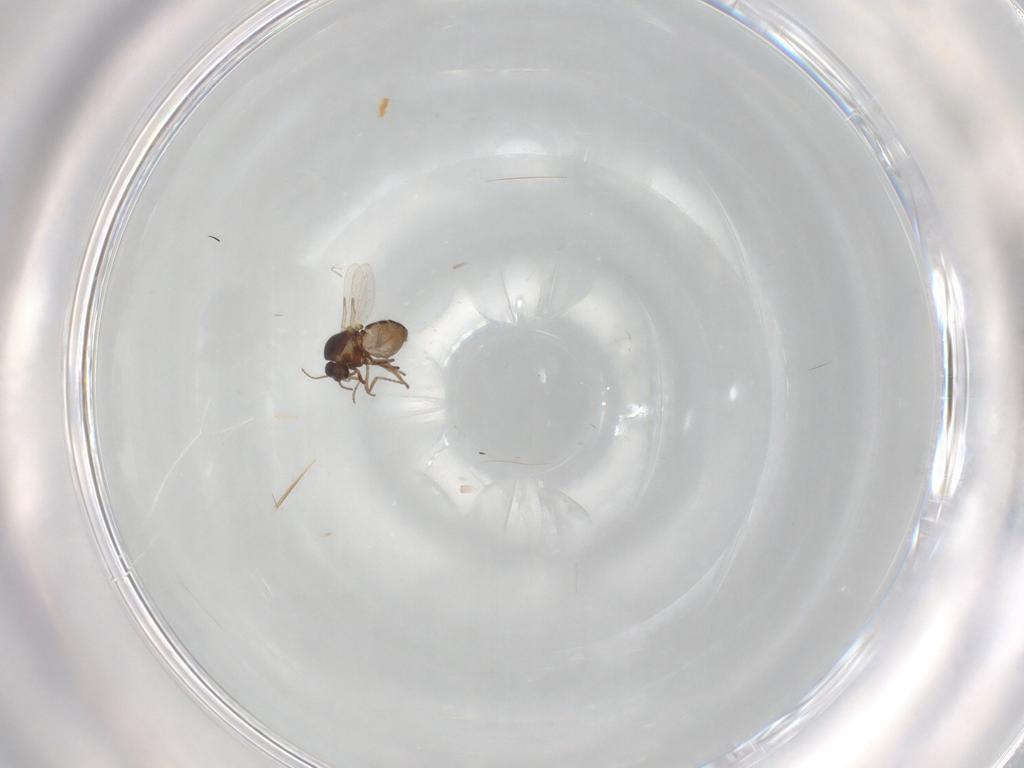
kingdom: Animalia
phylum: Arthropoda
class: Insecta
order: Diptera
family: Ceratopogonidae
